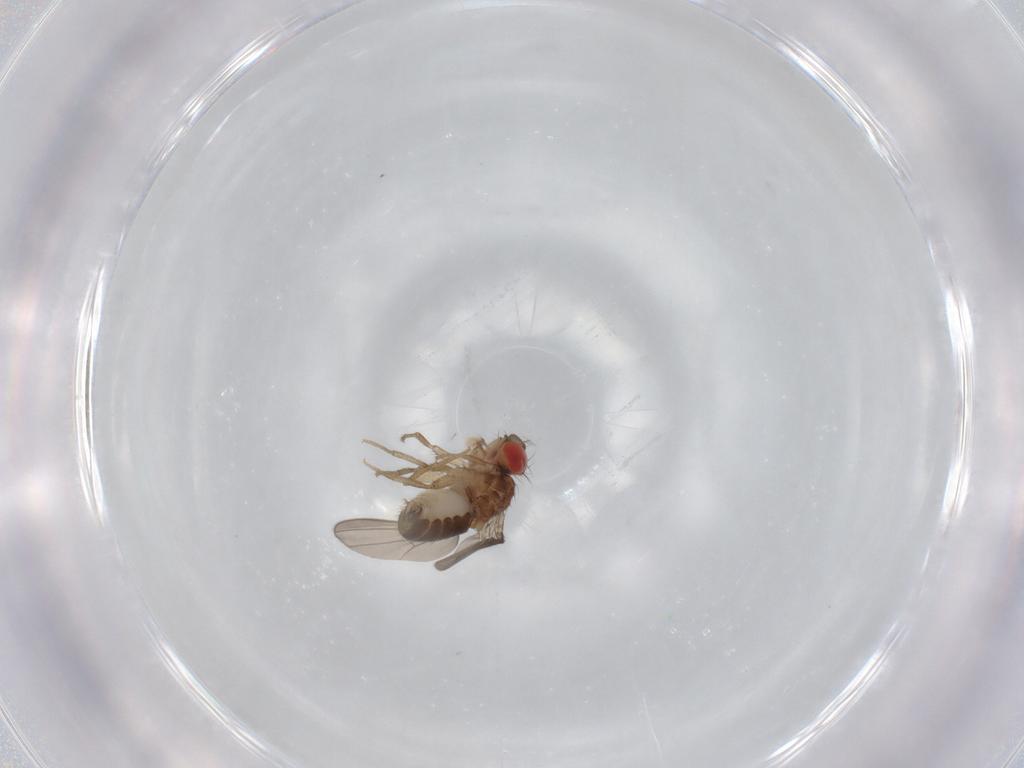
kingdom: Animalia
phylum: Arthropoda
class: Insecta
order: Diptera
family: Drosophilidae
